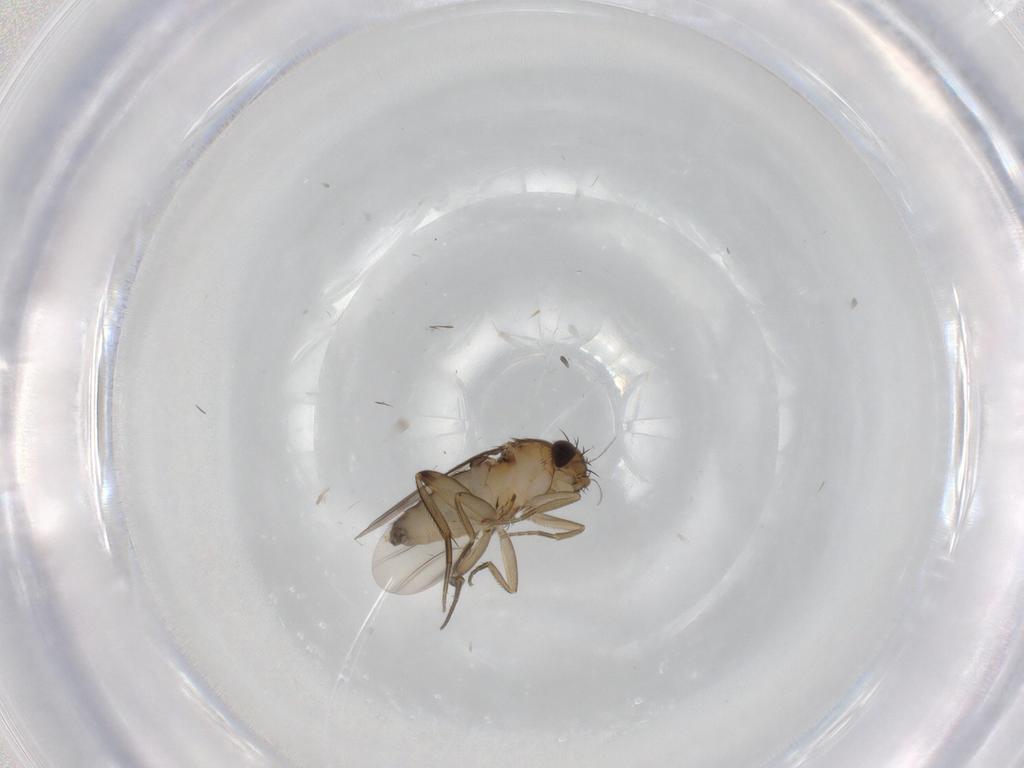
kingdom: Animalia
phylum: Arthropoda
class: Insecta
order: Diptera
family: Phoridae
